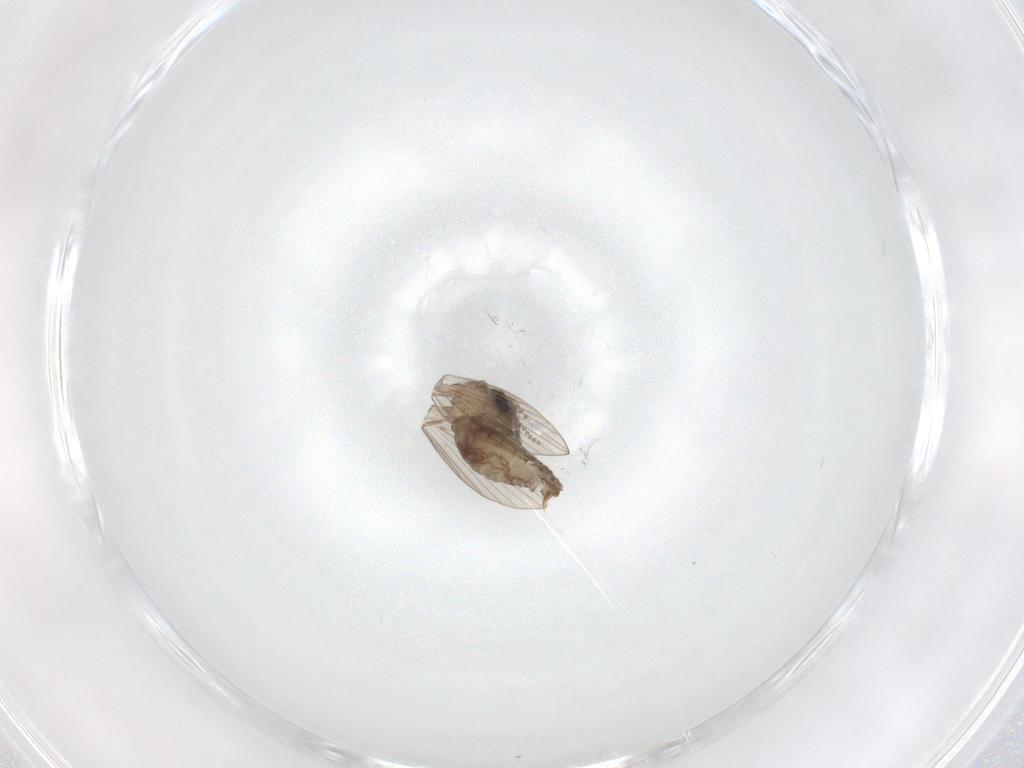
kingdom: Animalia
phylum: Arthropoda
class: Insecta
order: Diptera
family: Psychodidae
